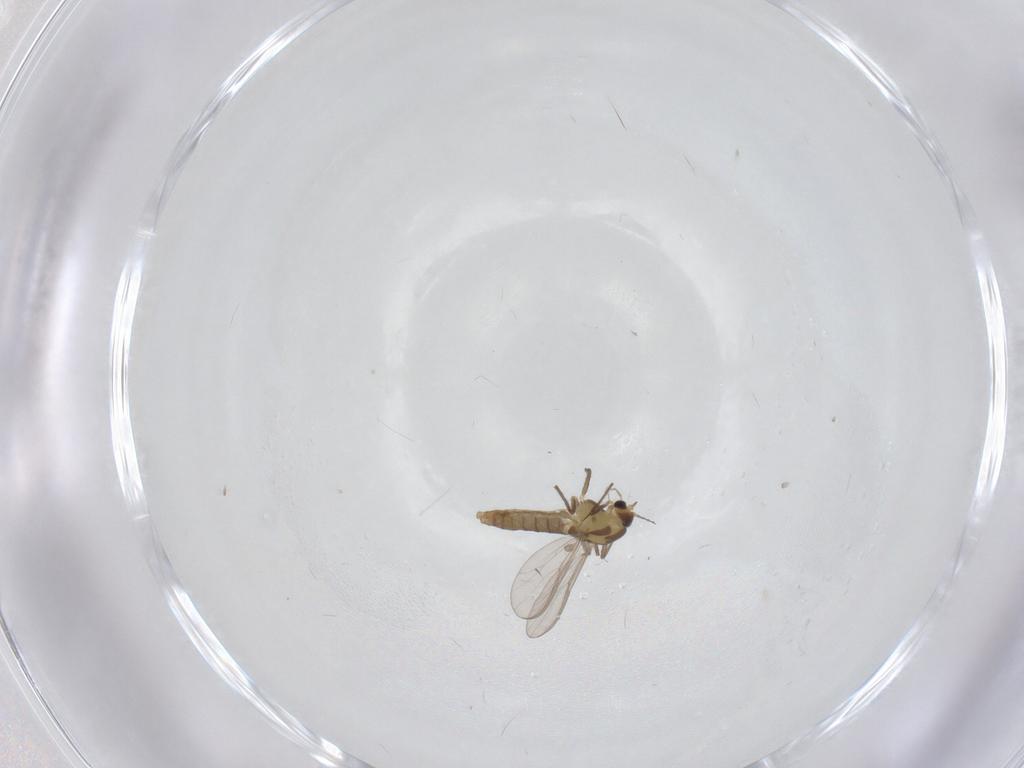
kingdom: Animalia
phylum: Arthropoda
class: Insecta
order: Diptera
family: Chironomidae
